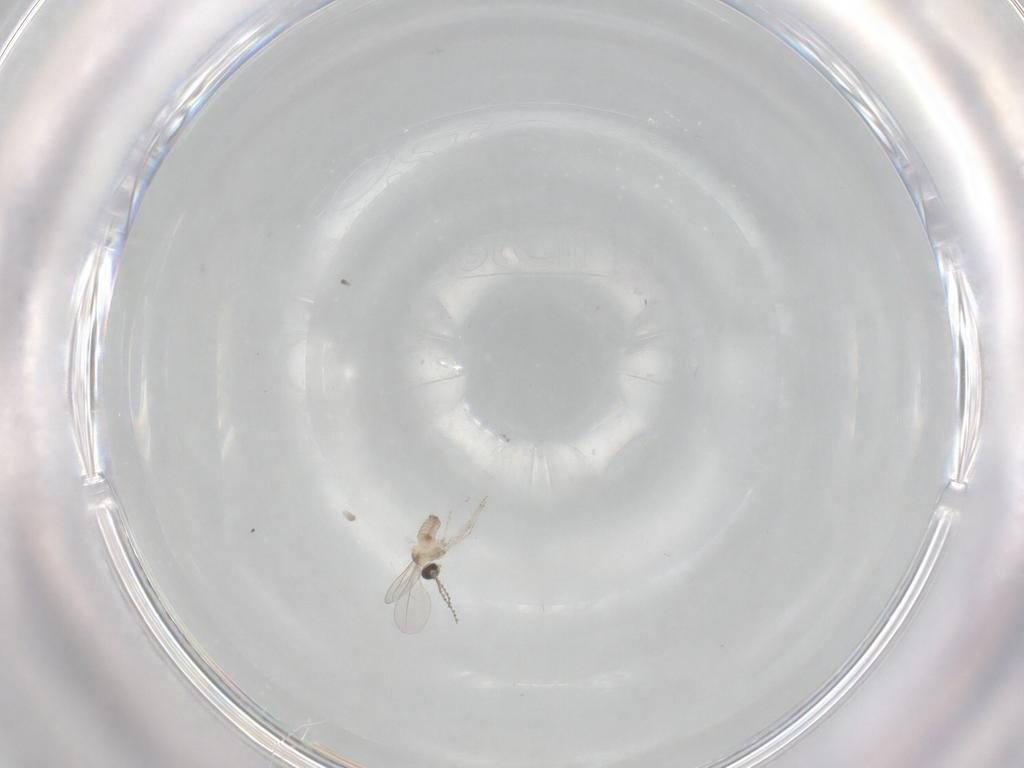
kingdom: Animalia
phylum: Arthropoda
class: Insecta
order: Diptera
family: Cecidomyiidae
